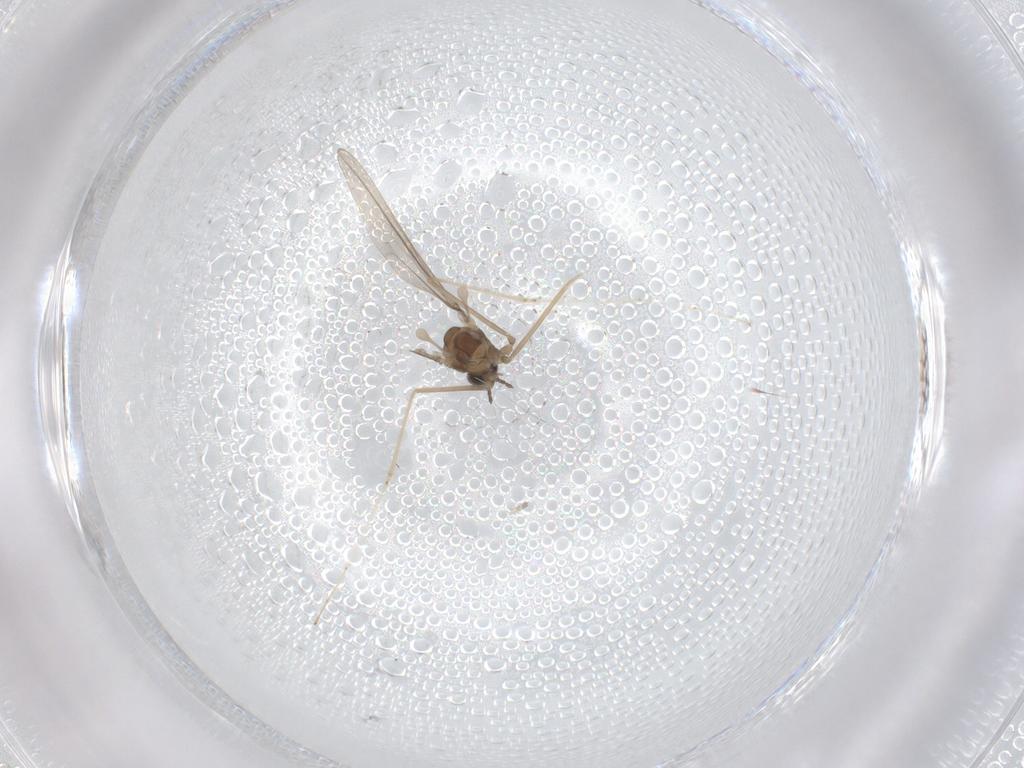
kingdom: Animalia
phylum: Arthropoda
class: Insecta
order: Diptera
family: Cecidomyiidae
